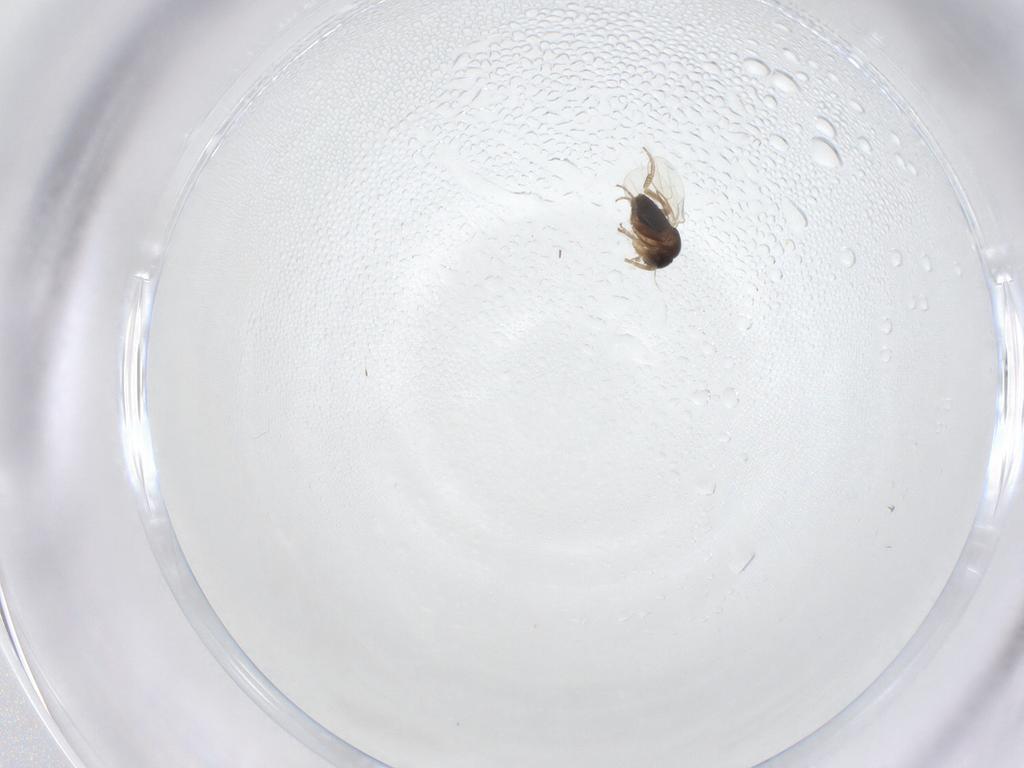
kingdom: Animalia
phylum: Arthropoda
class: Insecta
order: Diptera
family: Phoridae
